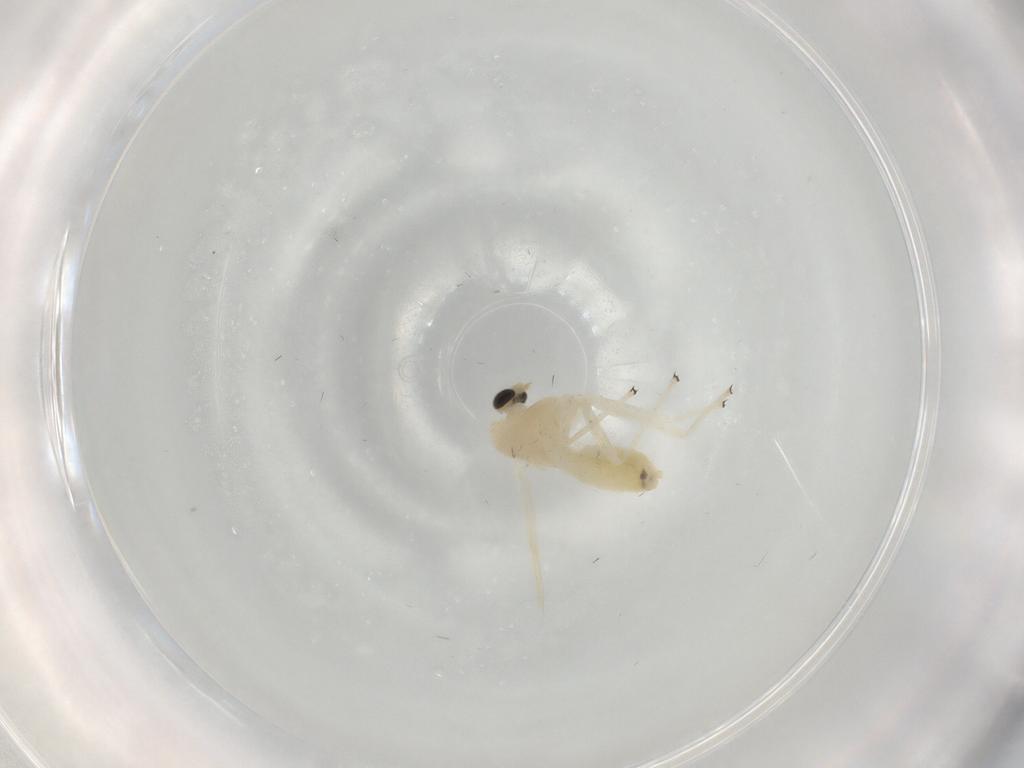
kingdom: Animalia
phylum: Arthropoda
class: Insecta
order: Diptera
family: Chironomidae
